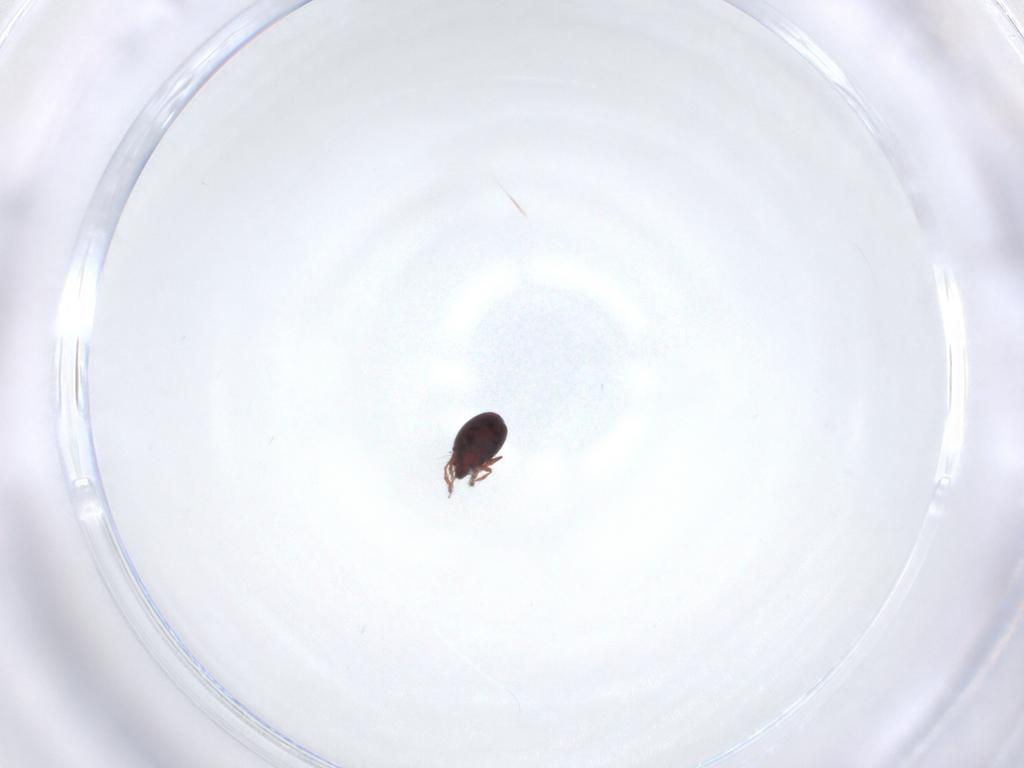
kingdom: Animalia
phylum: Arthropoda
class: Arachnida
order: Sarcoptiformes
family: Ceratozetidae
